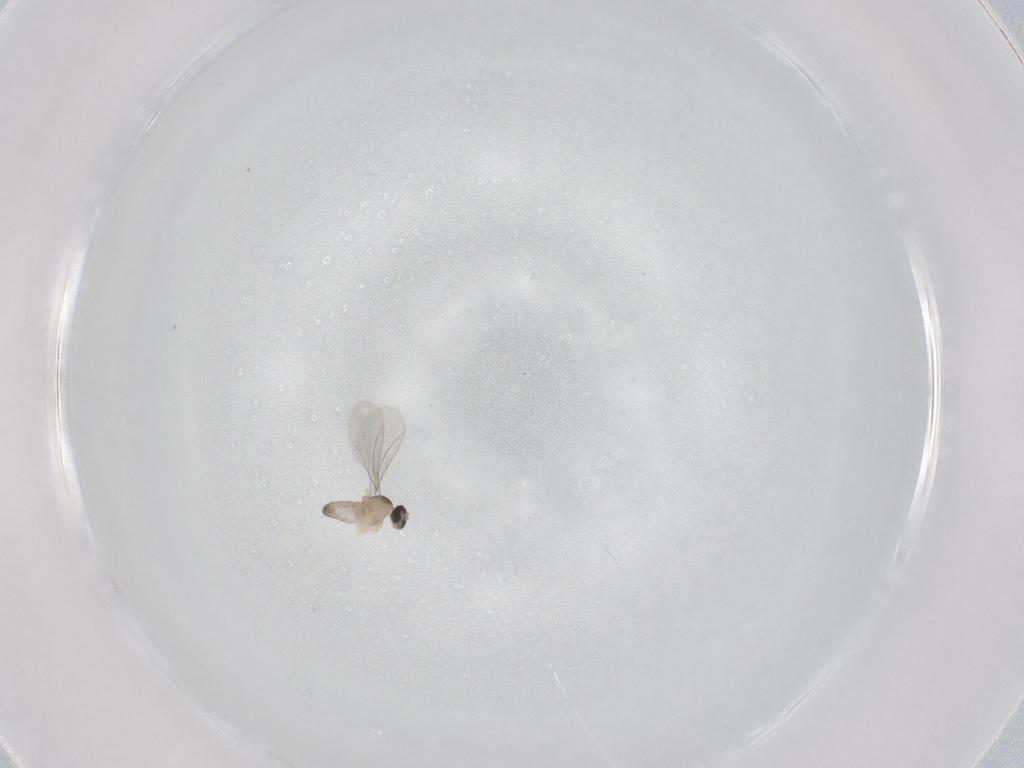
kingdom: Animalia
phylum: Arthropoda
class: Insecta
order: Diptera
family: Cecidomyiidae
